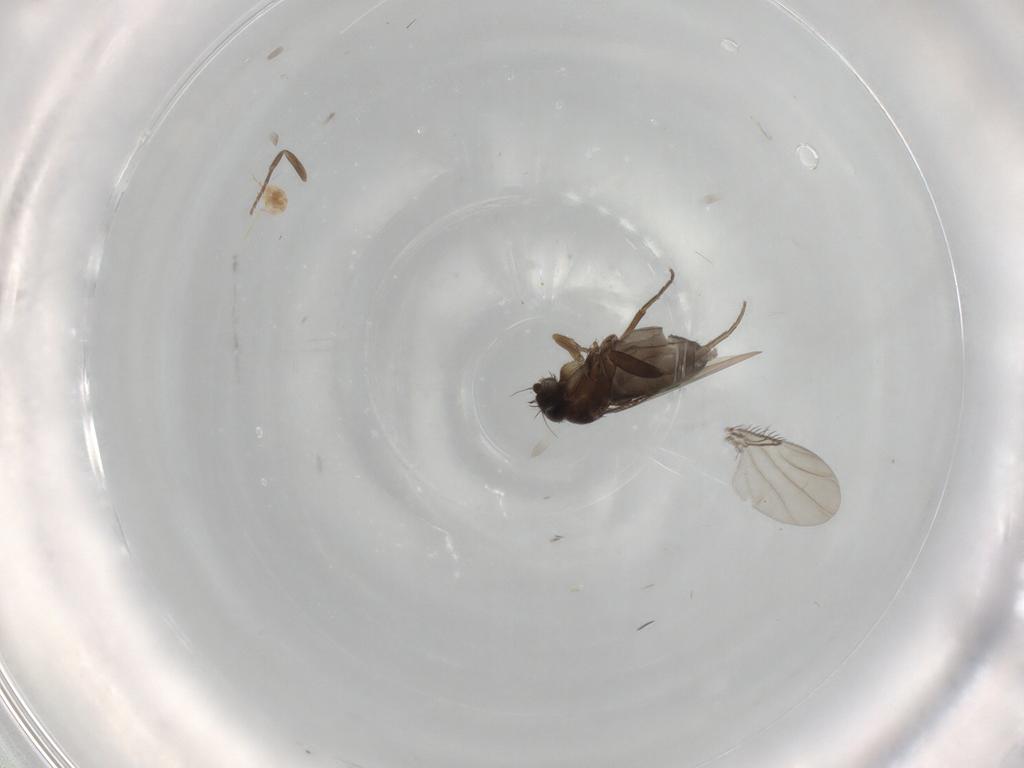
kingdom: Animalia
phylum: Arthropoda
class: Insecta
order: Diptera
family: Phoridae
